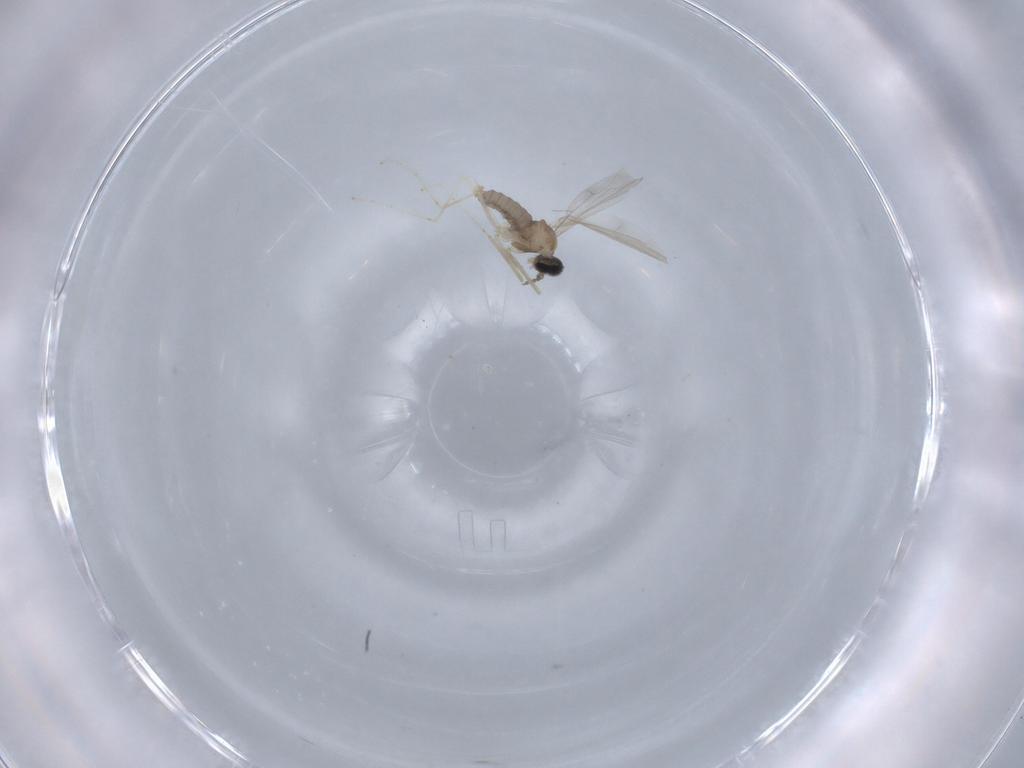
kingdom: Animalia
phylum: Arthropoda
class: Insecta
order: Diptera
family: Cecidomyiidae
